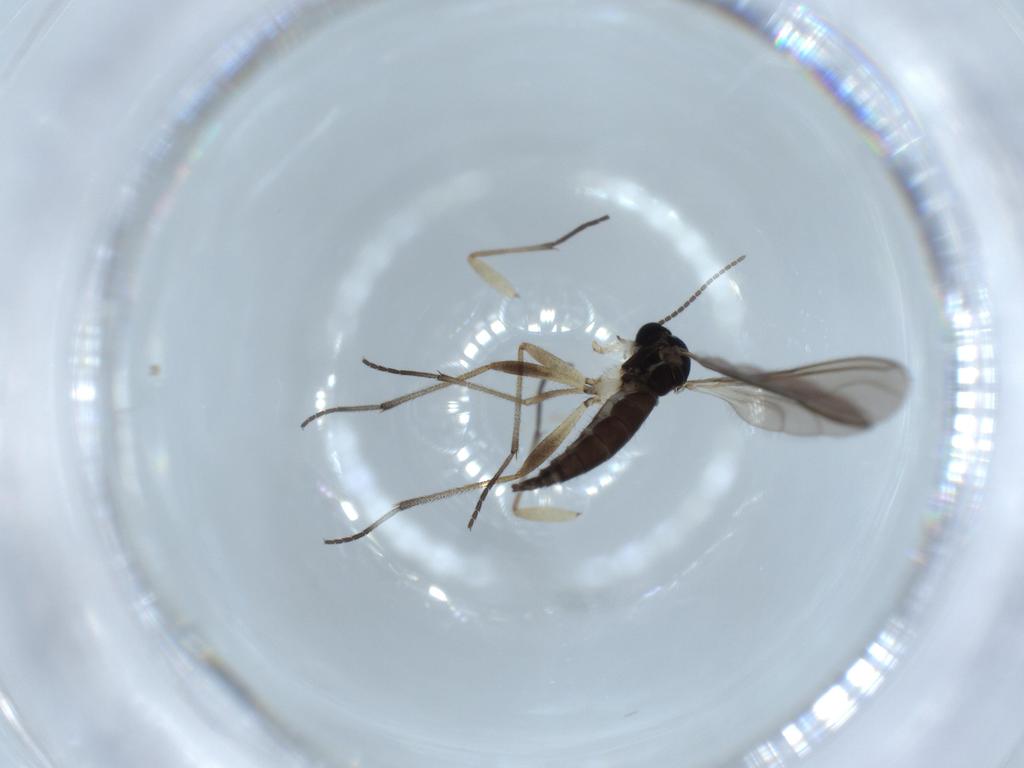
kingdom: Animalia
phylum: Arthropoda
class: Insecta
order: Diptera
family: Sciaridae
